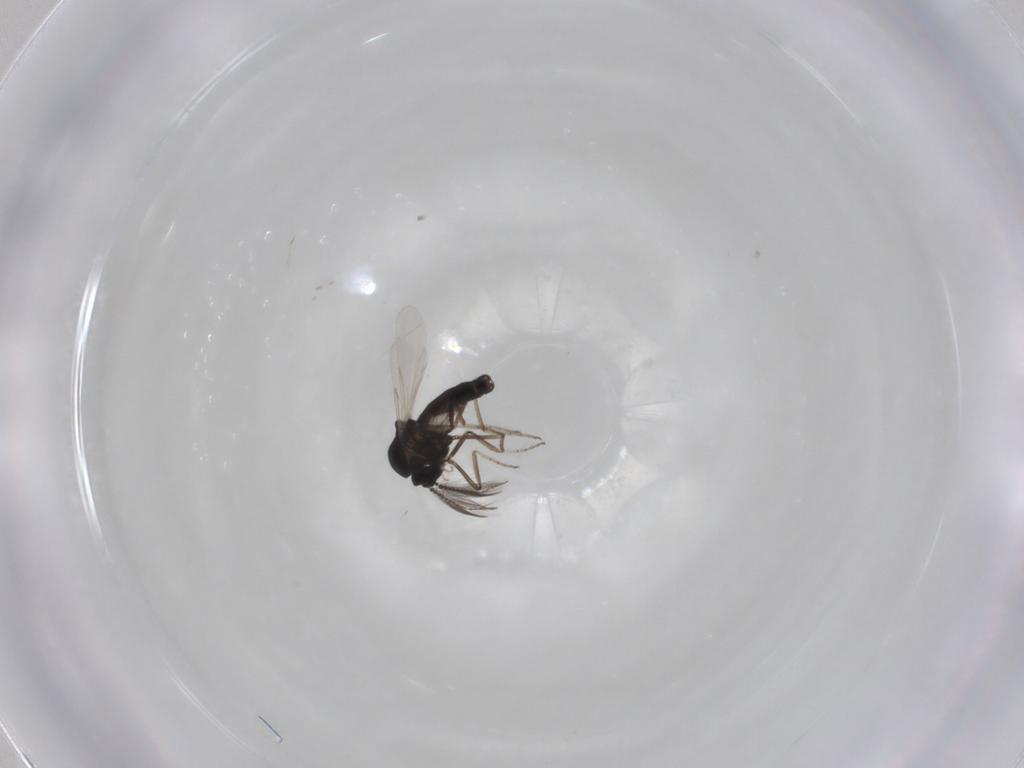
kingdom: Animalia
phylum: Arthropoda
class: Insecta
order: Diptera
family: Ceratopogonidae
